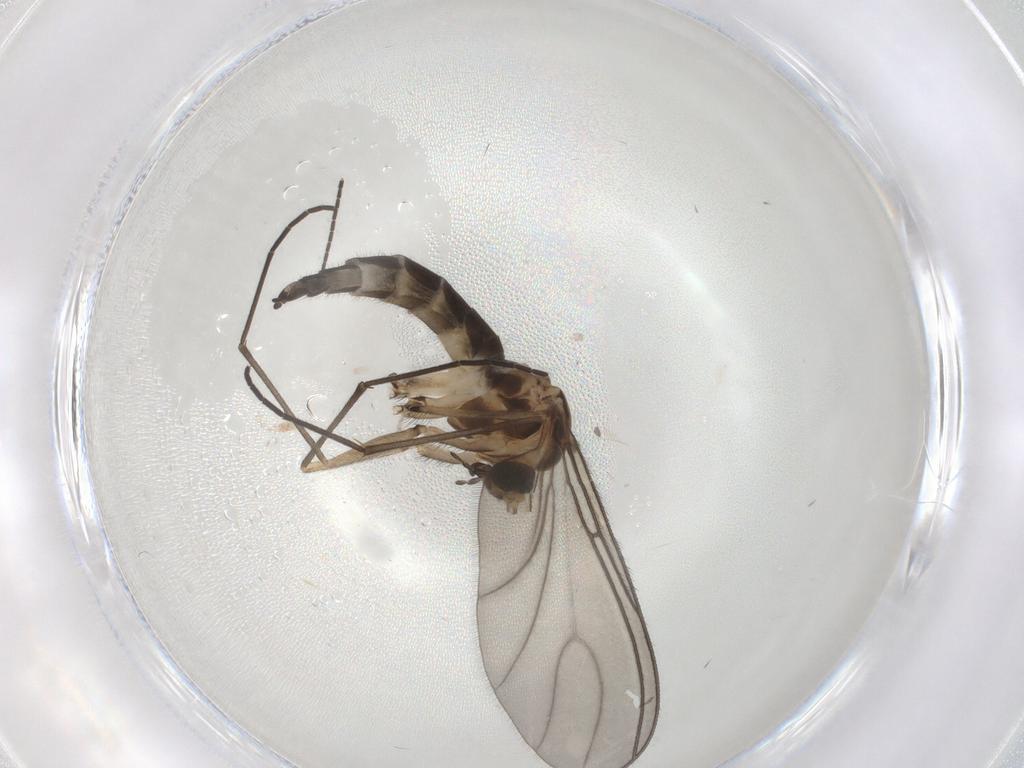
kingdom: Animalia
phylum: Arthropoda
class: Insecta
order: Diptera
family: Sciaridae
